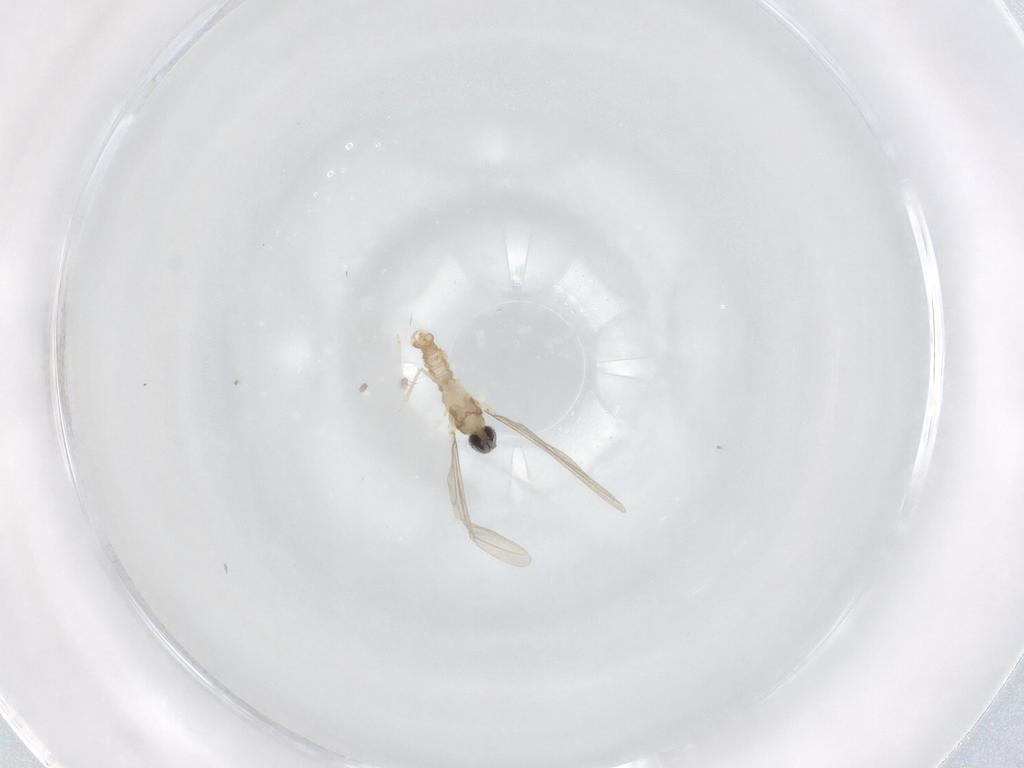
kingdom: Animalia
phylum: Arthropoda
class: Insecta
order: Diptera
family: Cecidomyiidae
